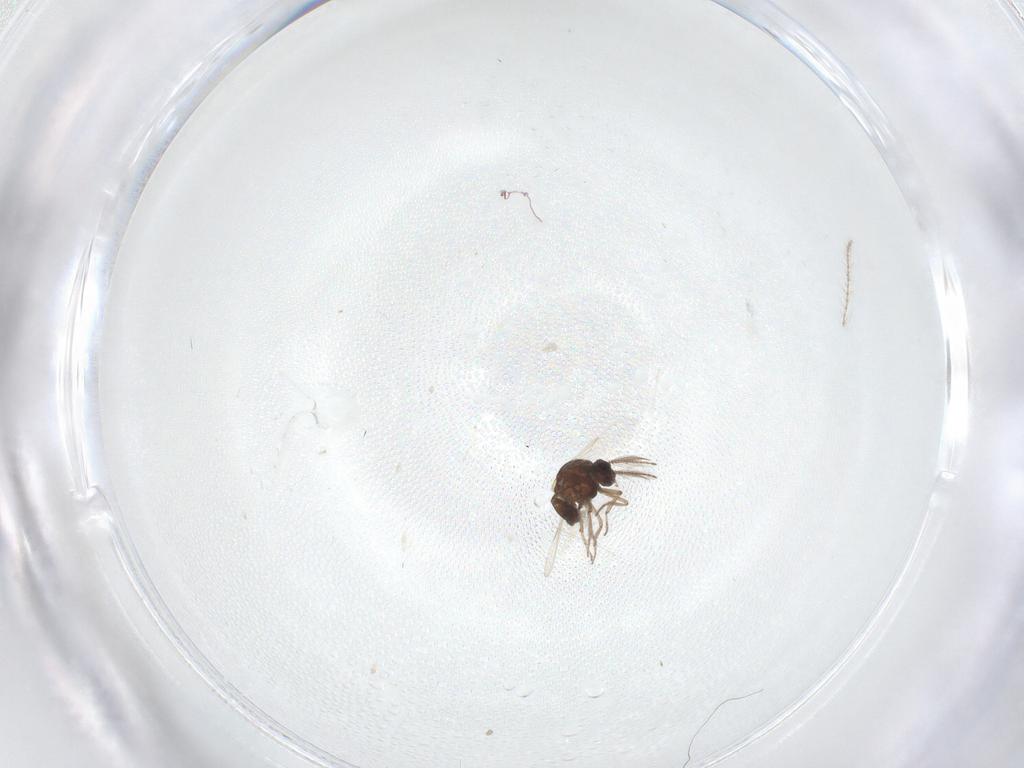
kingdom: Animalia
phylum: Arthropoda
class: Insecta
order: Diptera
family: Ceratopogonidae
